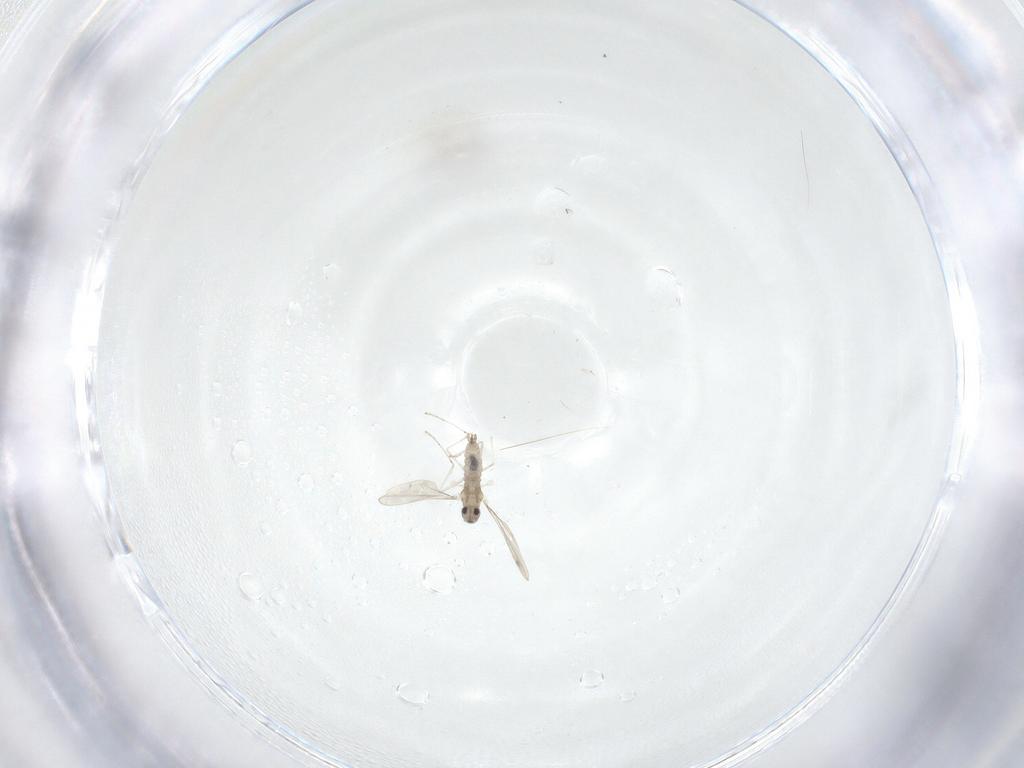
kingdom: Animalia
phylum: Arthropoda
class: Insecta
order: Diptera
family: Chironomidae
